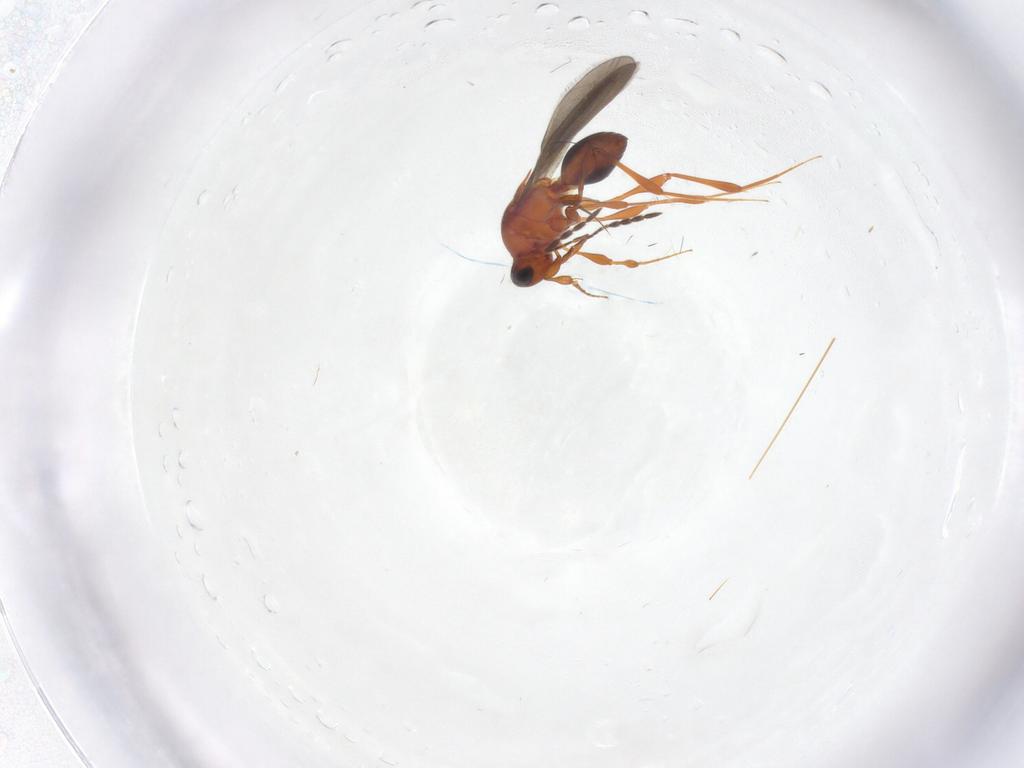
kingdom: Animalia
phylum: Arthropoda
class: Insecta
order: Hymenoptera
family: Platygastridae
